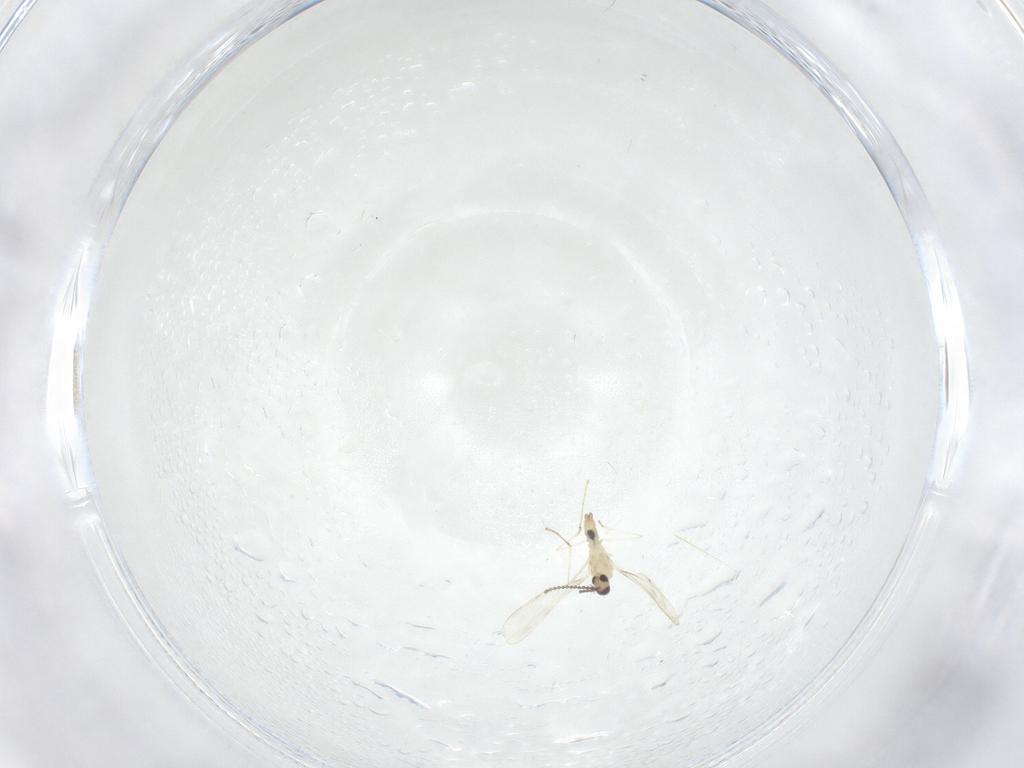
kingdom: Animalia
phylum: Arthropoda
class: Insecta
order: Diptera
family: Cecidomyiidae
